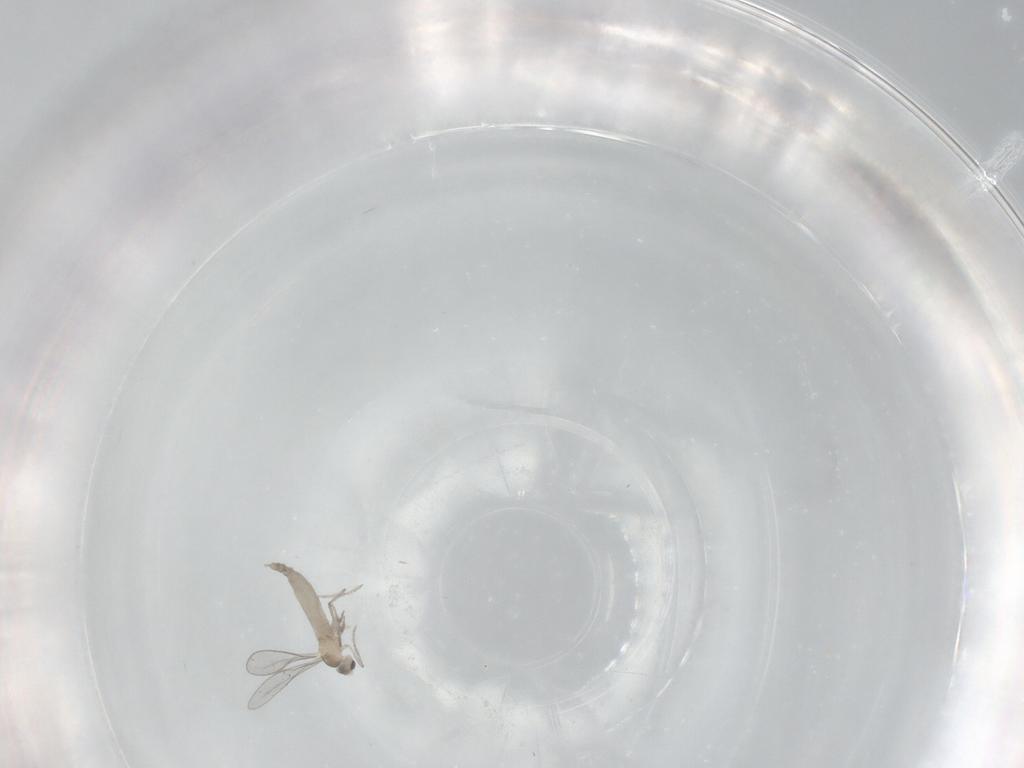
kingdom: Animalia
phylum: Arthropoda
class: Insecta
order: Diptera
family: Cecidomyiidae
